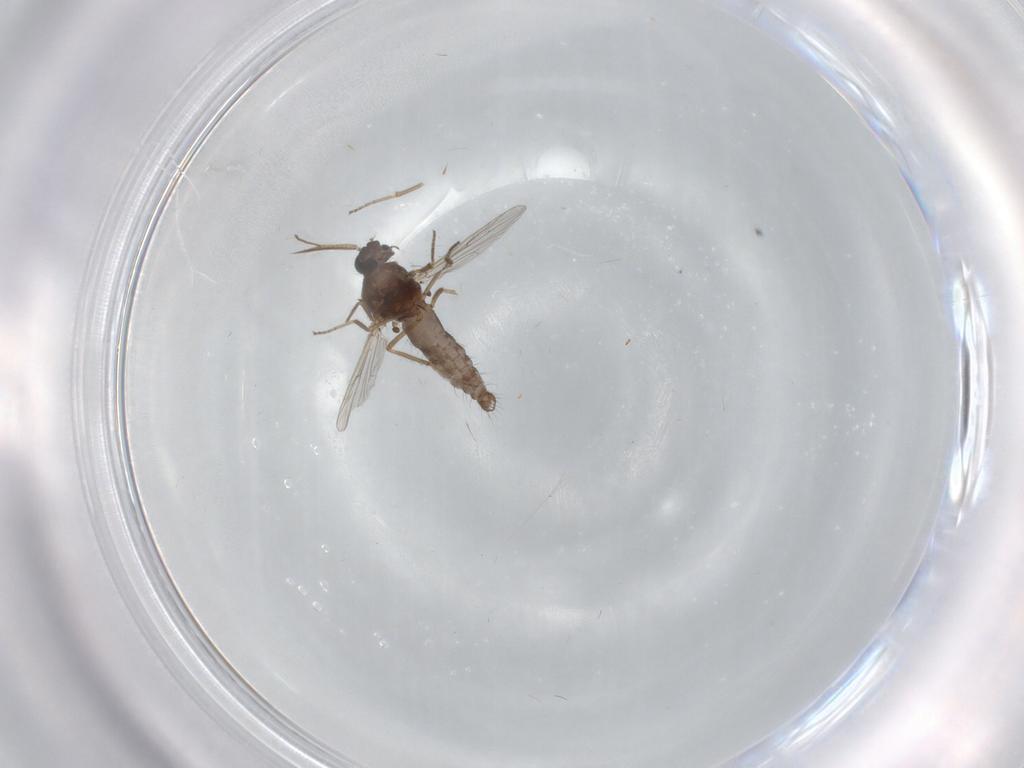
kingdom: Animalia
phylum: Arthropoda
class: Insecta
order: Diptera
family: Ceratopogonidae
